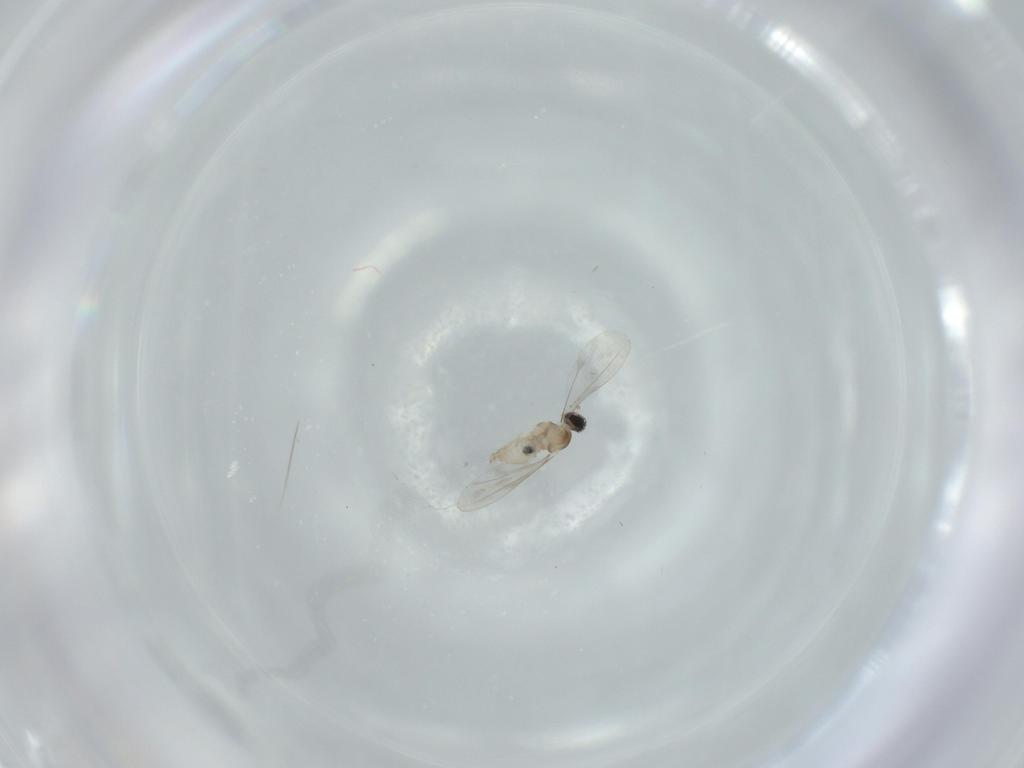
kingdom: Animalia
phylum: Arthropoda
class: Insecta
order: Diptera
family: Cecidomyiidae
